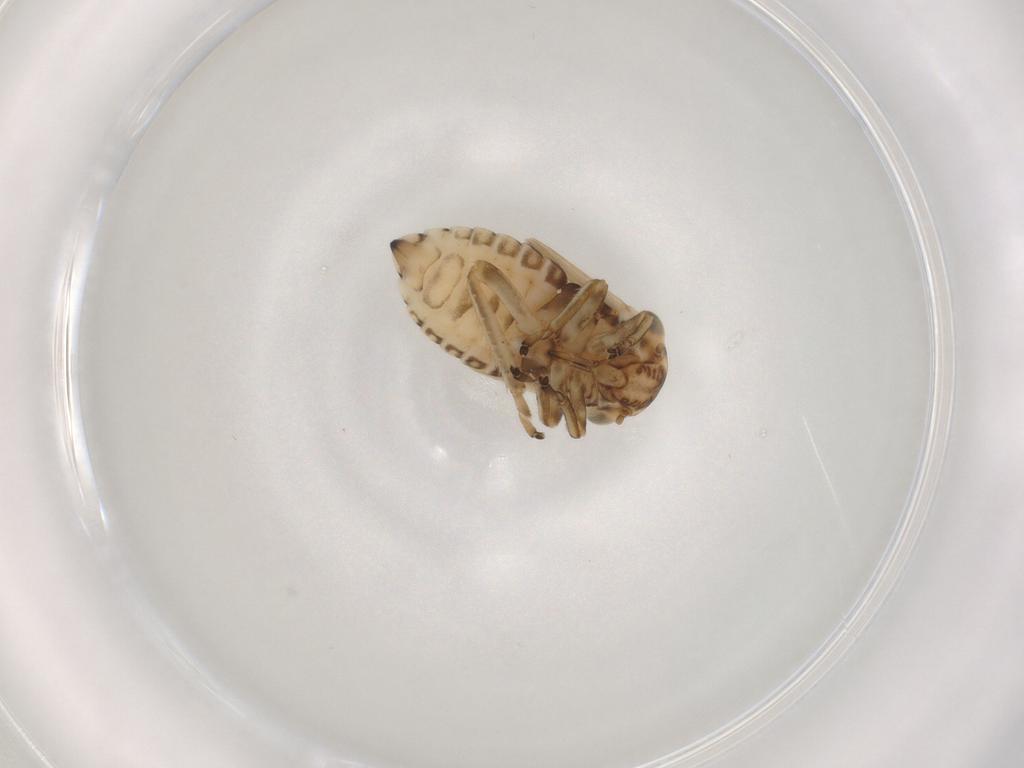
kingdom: Animalia
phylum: Arthropoda
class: Insecta
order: Hemiptera
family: Cicadellidae
